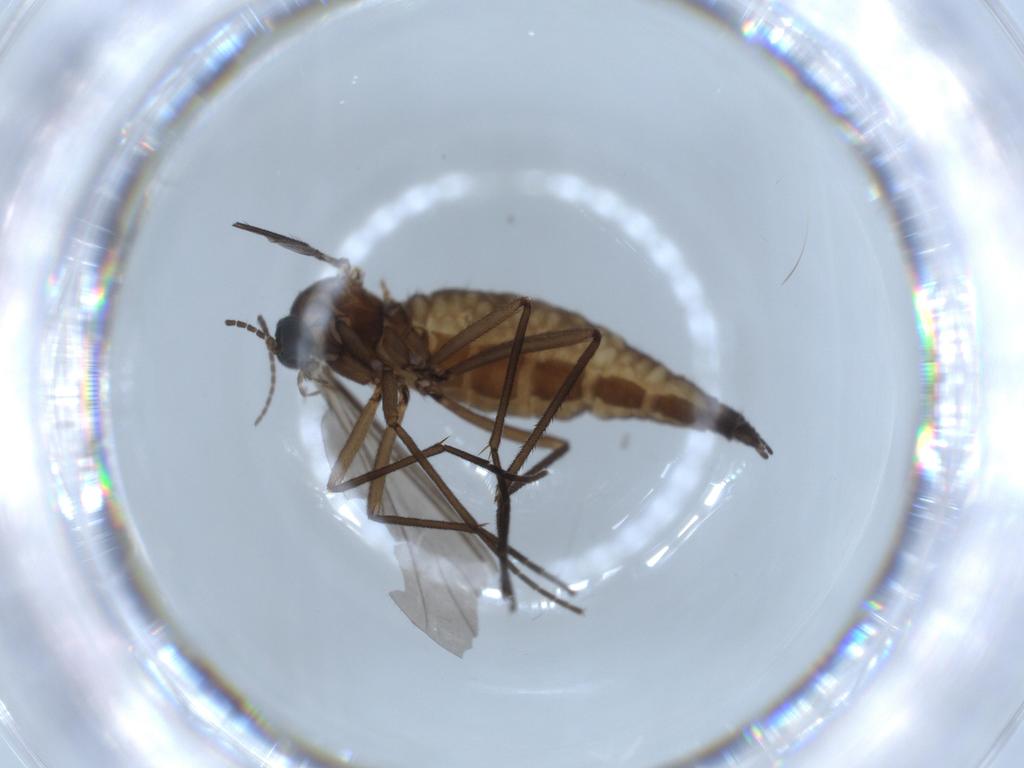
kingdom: Animalia
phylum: Arthropoda
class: Insecta
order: Diptera
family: Sciaridae
